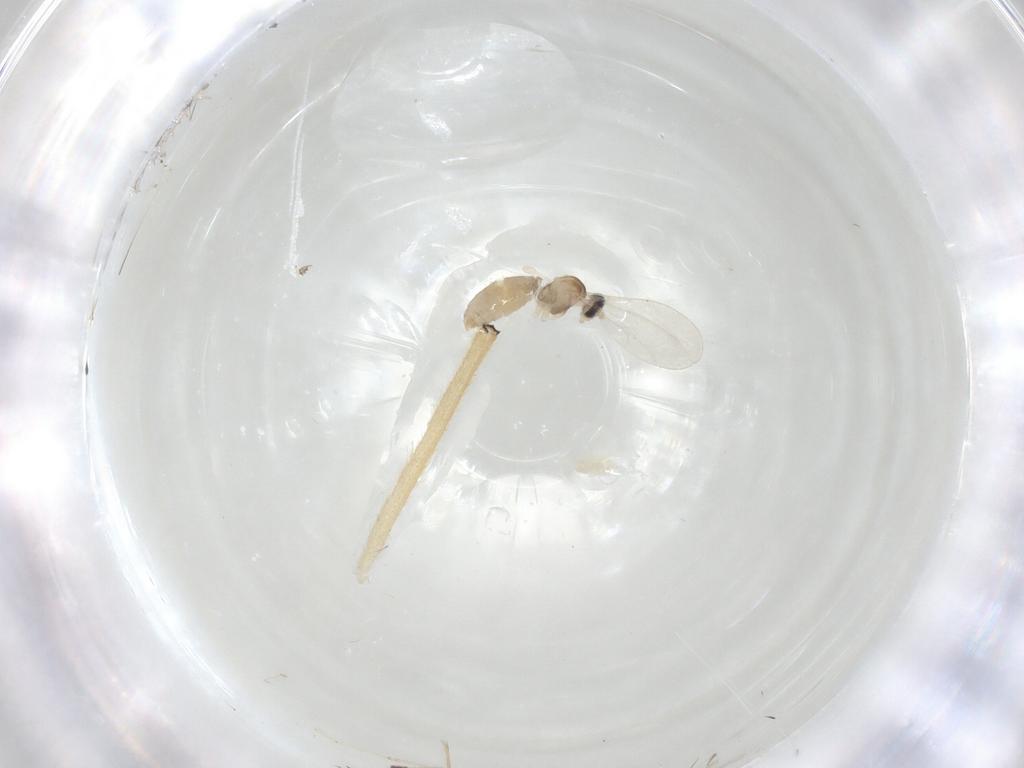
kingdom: Animalia
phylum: Arthropoda
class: Insecta
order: Diptera
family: Cecidomyiidae
